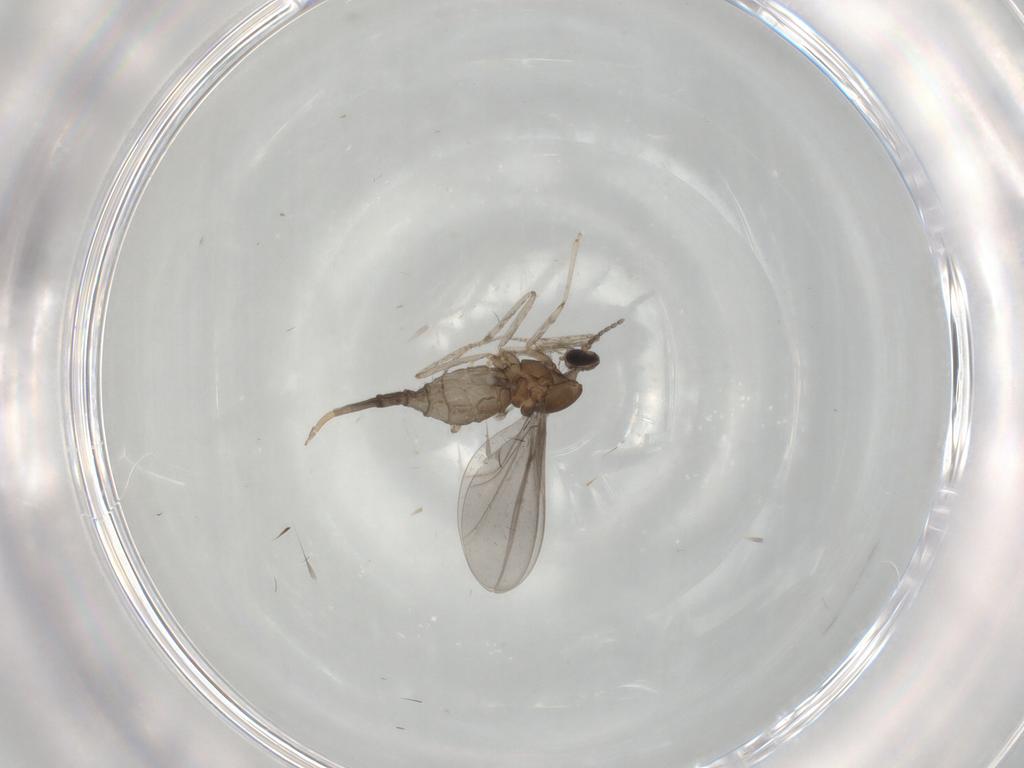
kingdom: Animalia
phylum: Arthropoda
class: Insecta
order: Diptera
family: Cecidomyiidae
